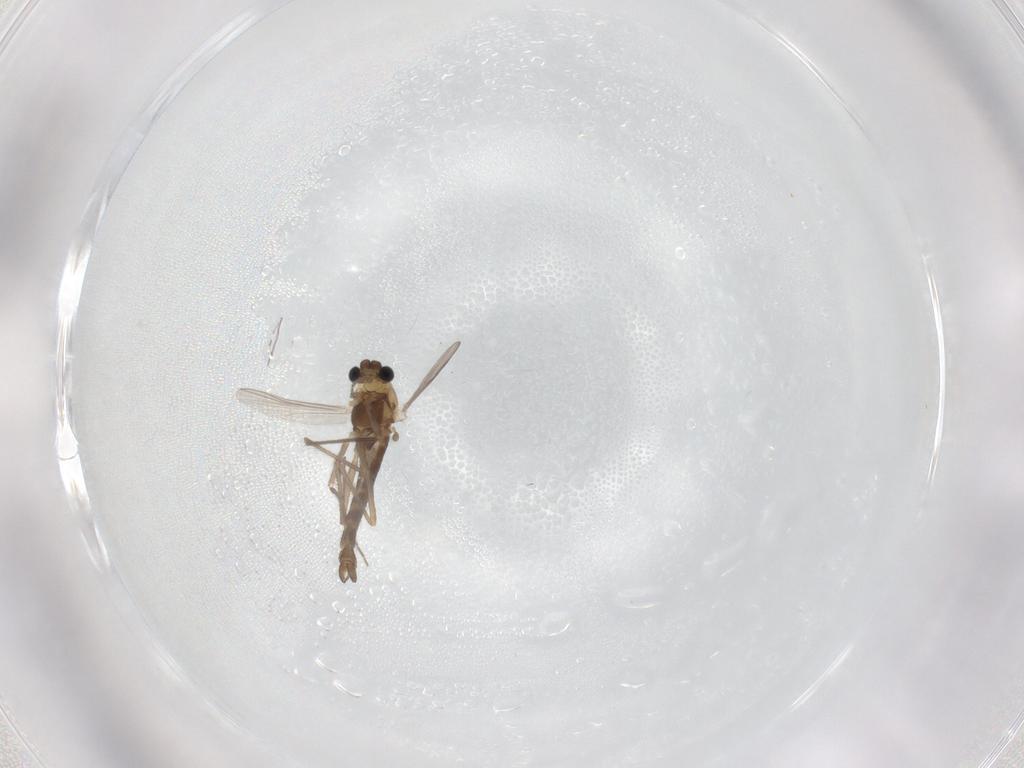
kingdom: Animalia
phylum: Arthropoda
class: Insecta
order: Diptera
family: Chironomidae
